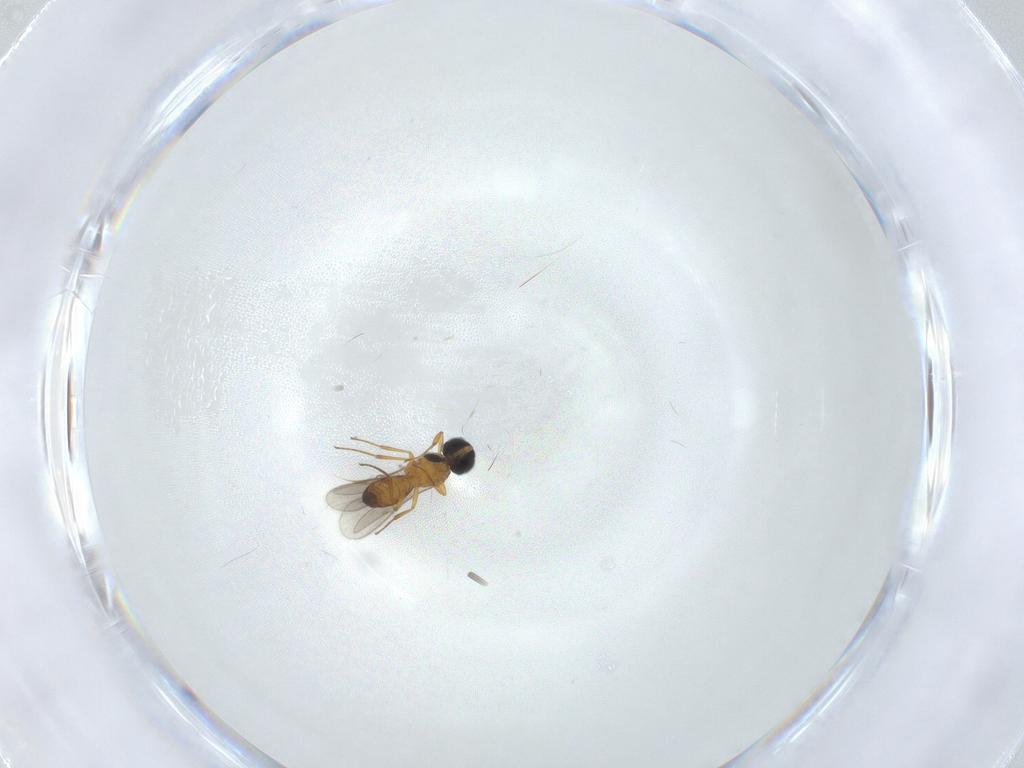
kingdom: Animalia
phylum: Arthropoda
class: Insecta
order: Hymenoptera
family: Scelionidae
